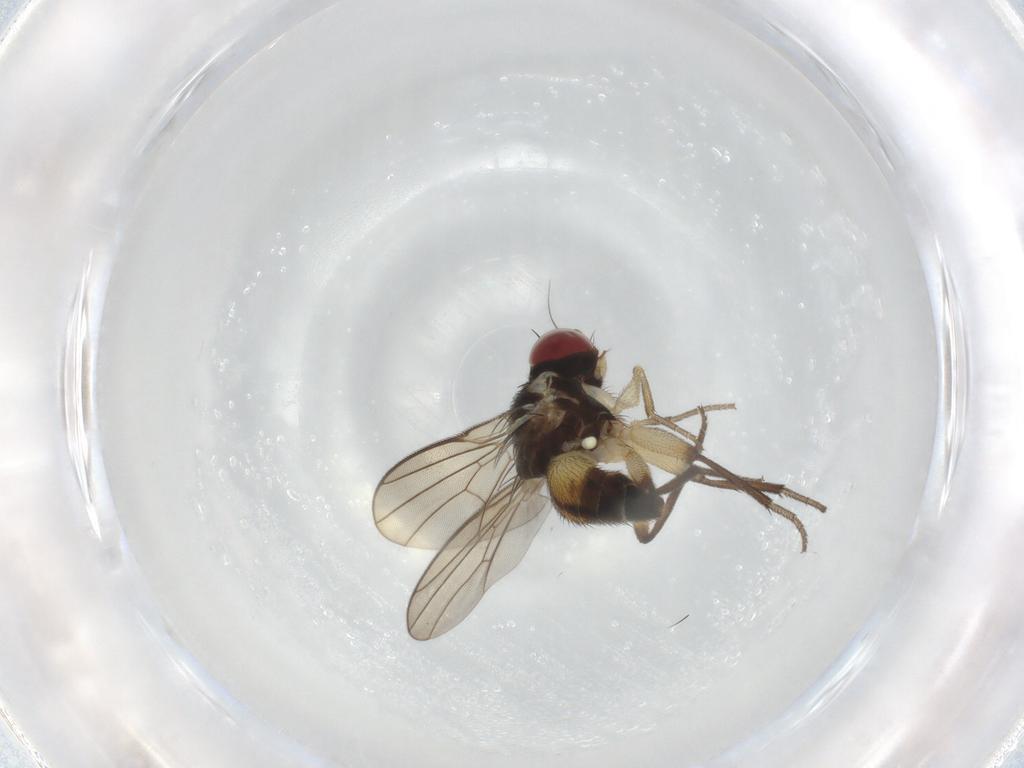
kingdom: Animalia
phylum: Arthropoda
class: Insecta
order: Diptera
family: Agromyzidae
